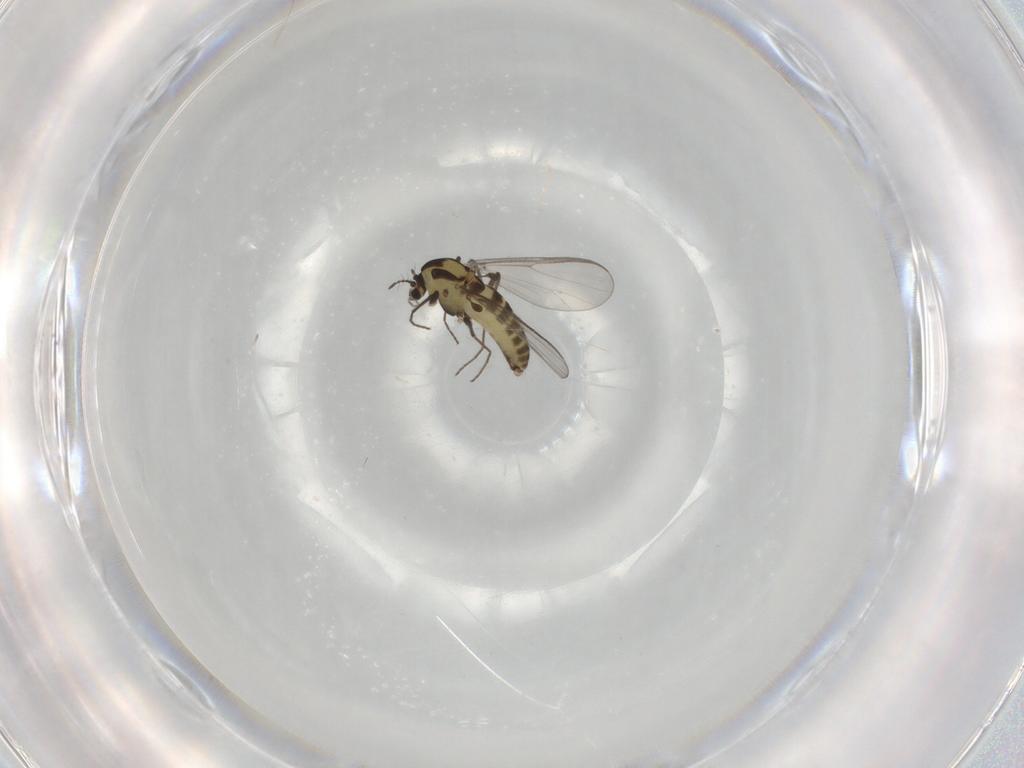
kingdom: Animalia
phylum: Arthropoda
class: Insecta
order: Diptera
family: Chironomidae
